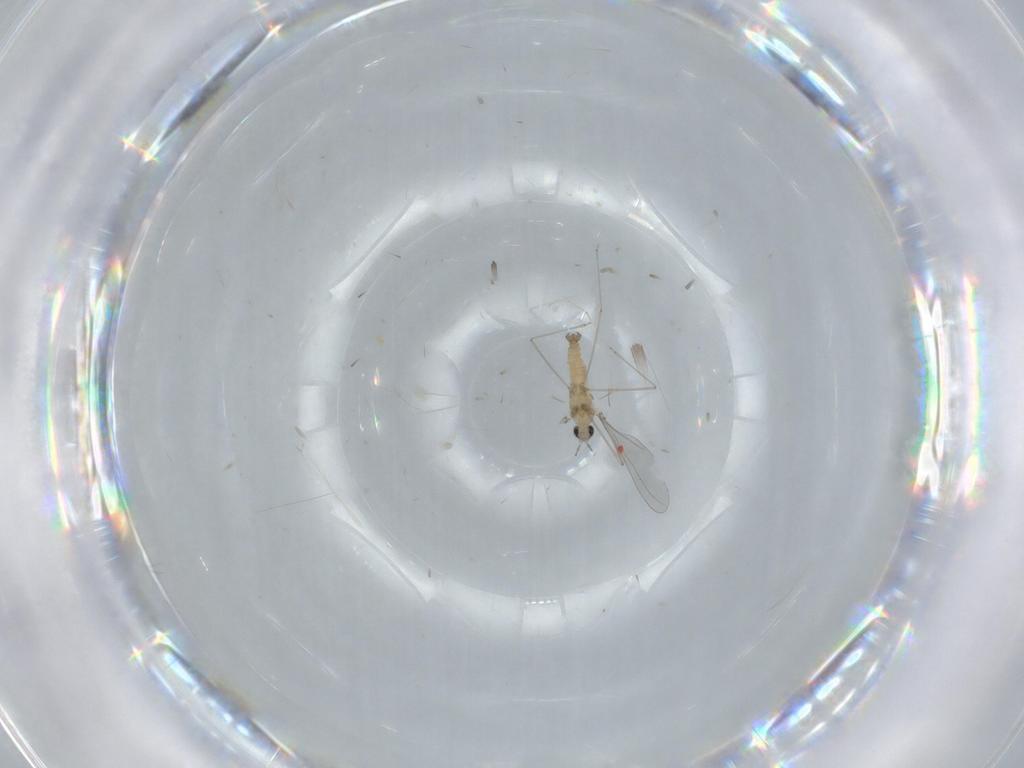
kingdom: Animalia
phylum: Arthropoda
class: Insecta
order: Diptera
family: Cecidomyiidae
